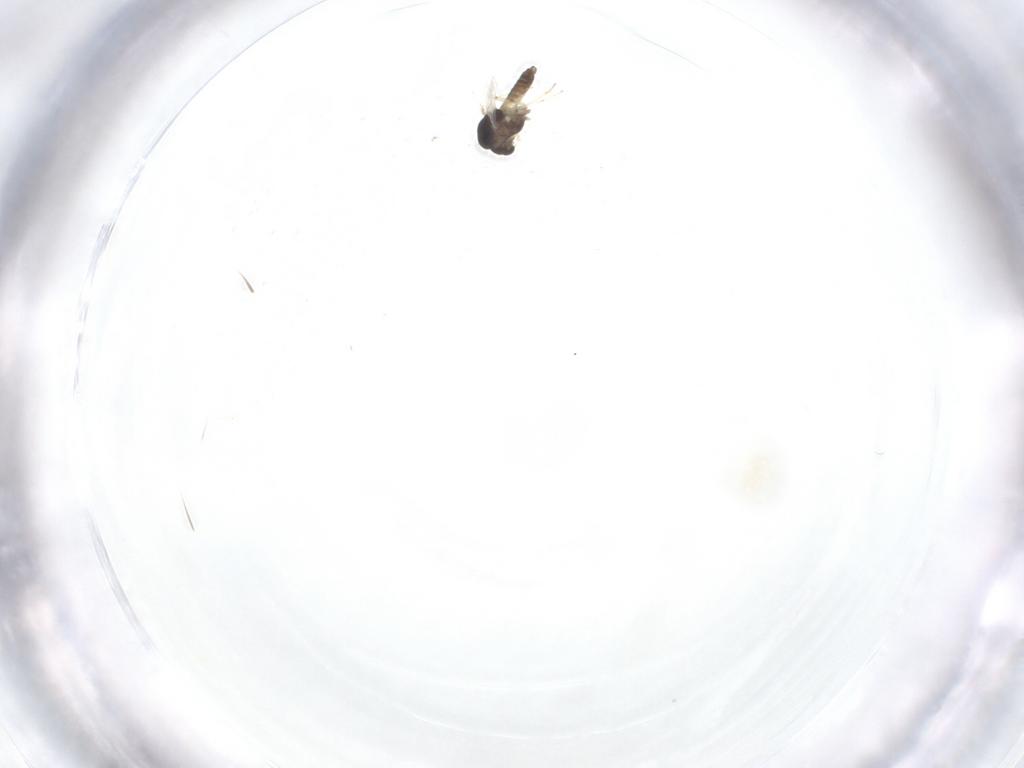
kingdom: Animalia
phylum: Arthropoda
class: Insecta
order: Diptera
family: Chironomidae
